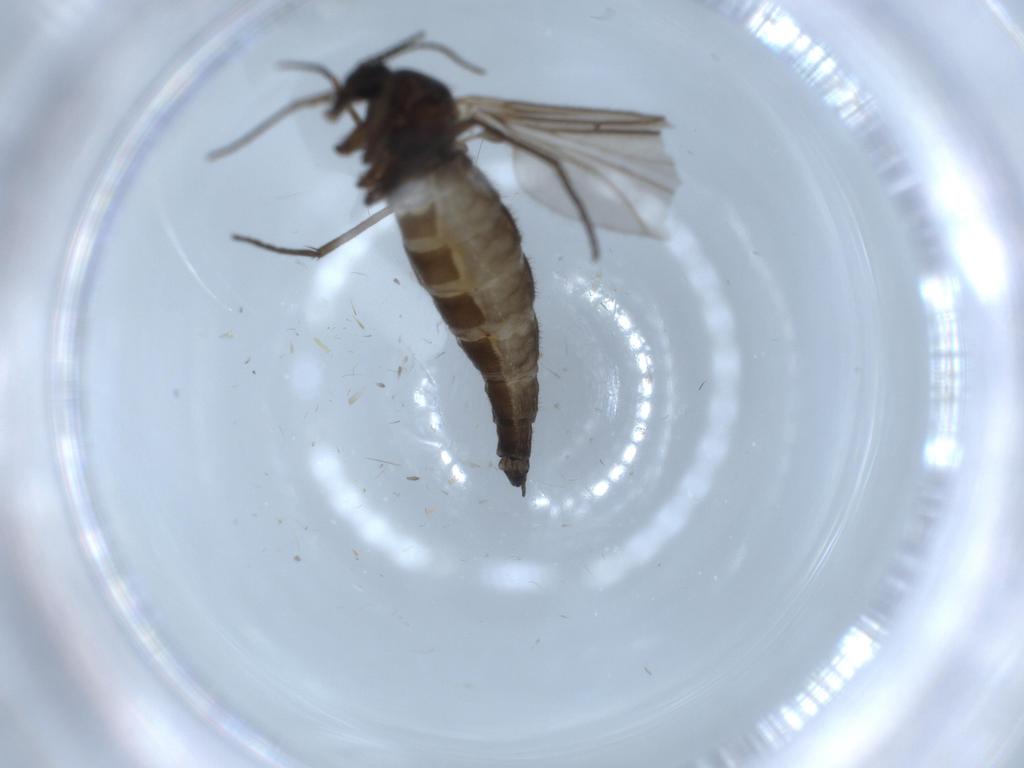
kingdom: Animalia
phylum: Arthropoda
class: Insecta
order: Diptera
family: Sciaridae
